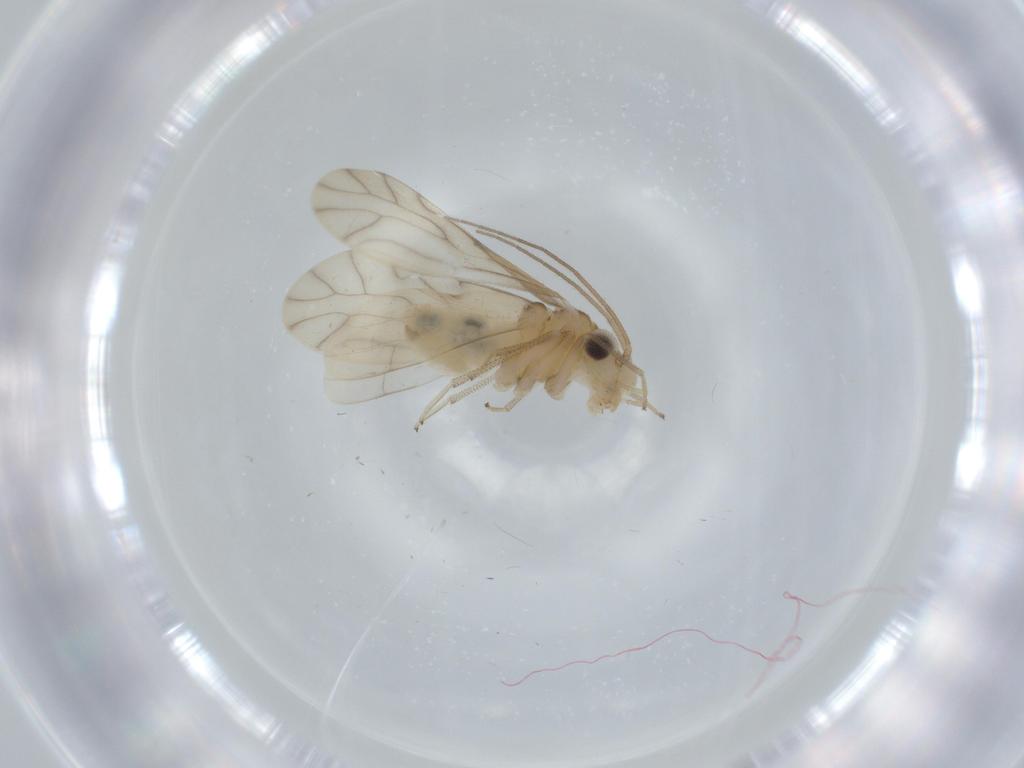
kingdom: Animalia
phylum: Arthropoda
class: Insecta
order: Psocodea
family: Caeciliusidae
